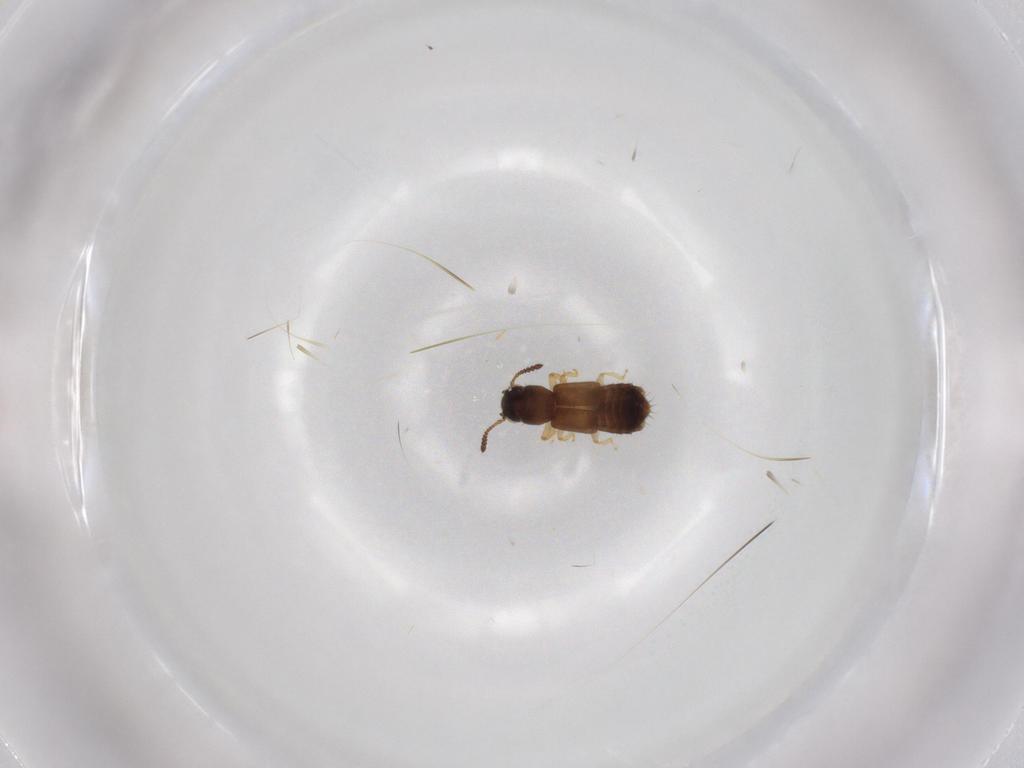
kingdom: Animalia
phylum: Arthropoda
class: Insecta
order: Coleoptera
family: Staphylinidae
